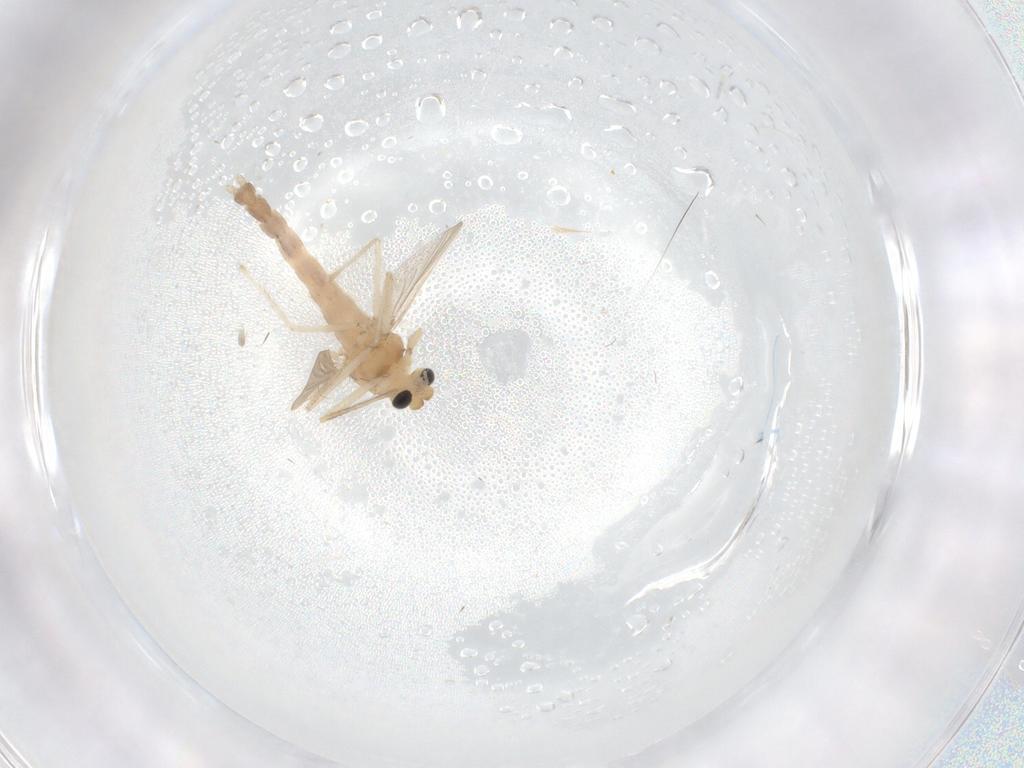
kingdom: Animalia
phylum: Arthropoda
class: Insecta
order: Diptera
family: Chironomidae
